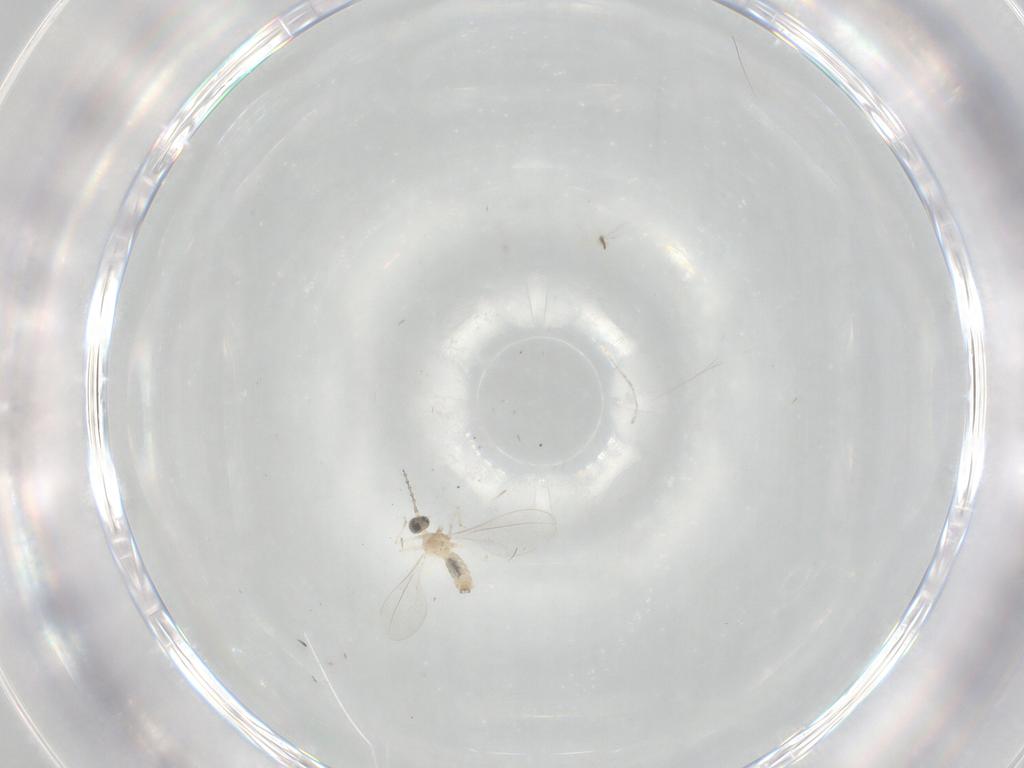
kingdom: Animalia
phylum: Arthropoda
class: Insecta
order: Diptera
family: Cecidomyiidae
